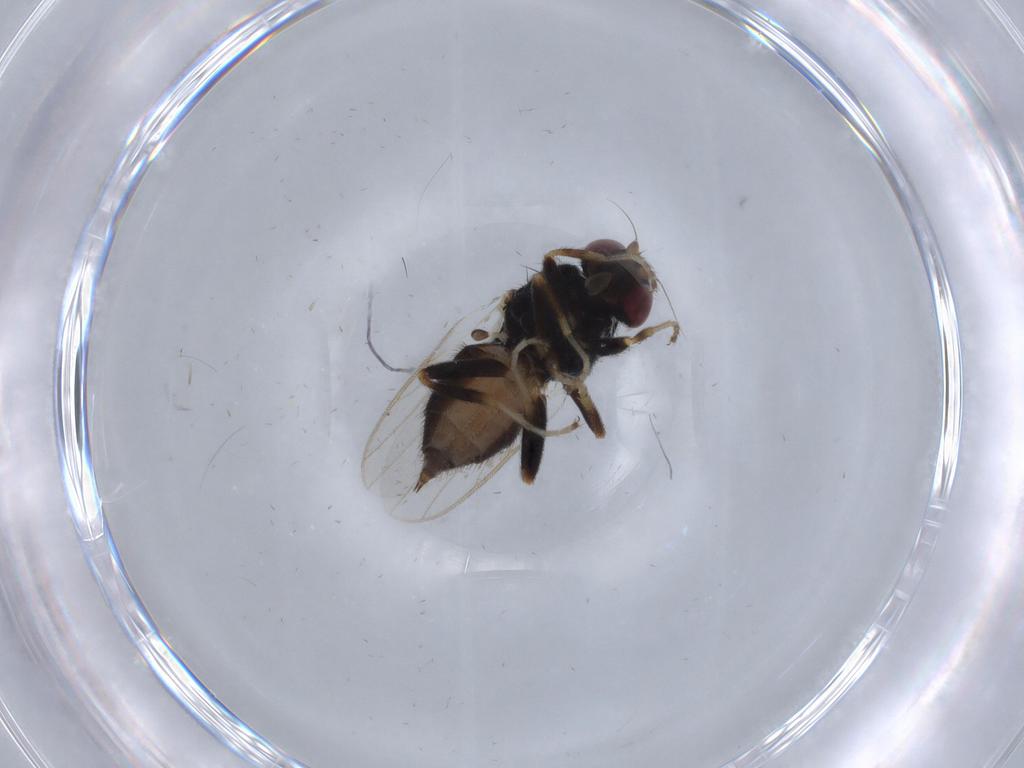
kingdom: Animalia
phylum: Arthropoda
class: Insecta
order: Diptera
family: Chloropidae
